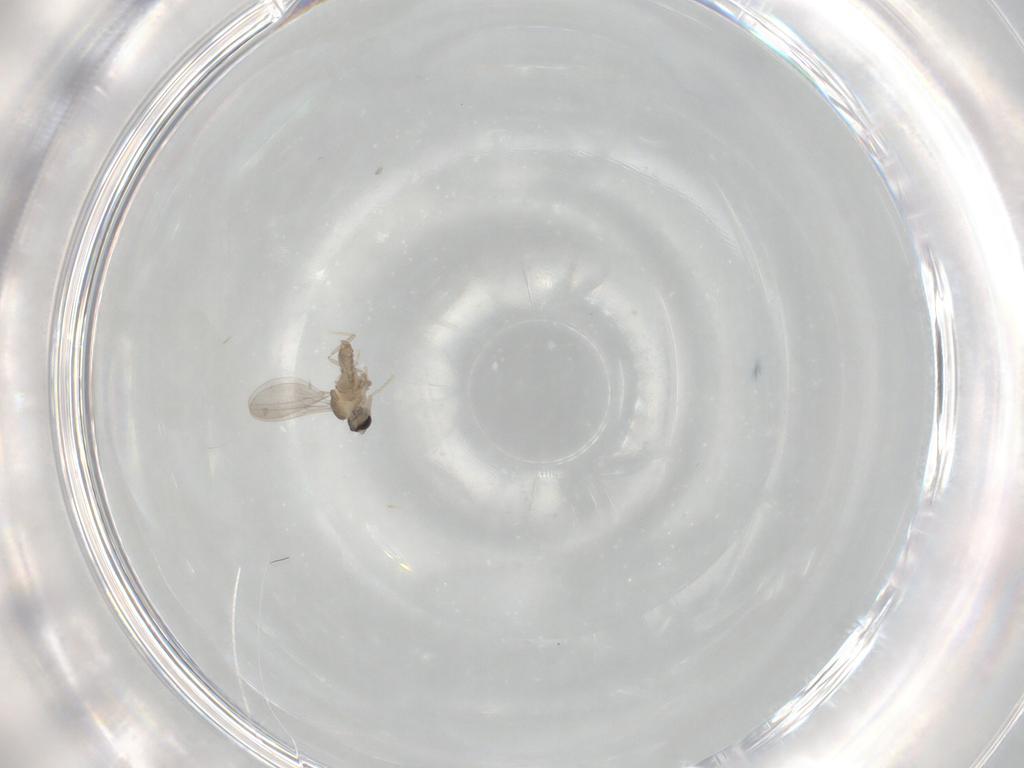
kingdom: Animalia
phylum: Arthropoda
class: Insecta
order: Diptera
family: Cecidomyiidae
